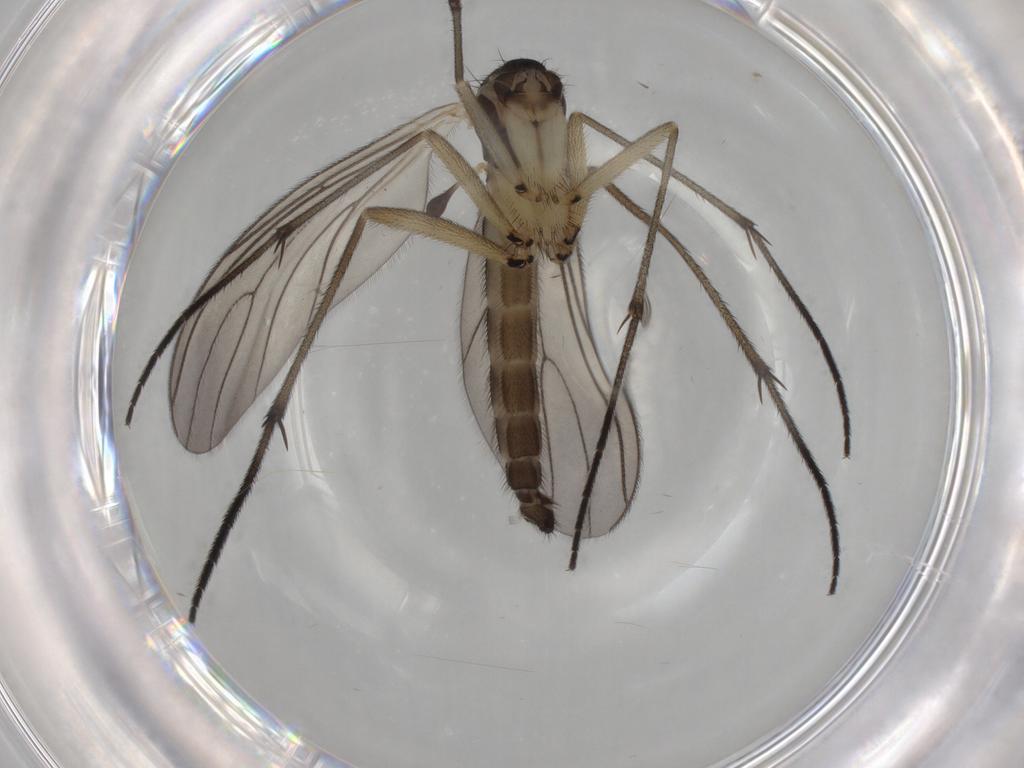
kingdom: Animalia
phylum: Arthropoda
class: Insecta
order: Diptera
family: Sciaridae
